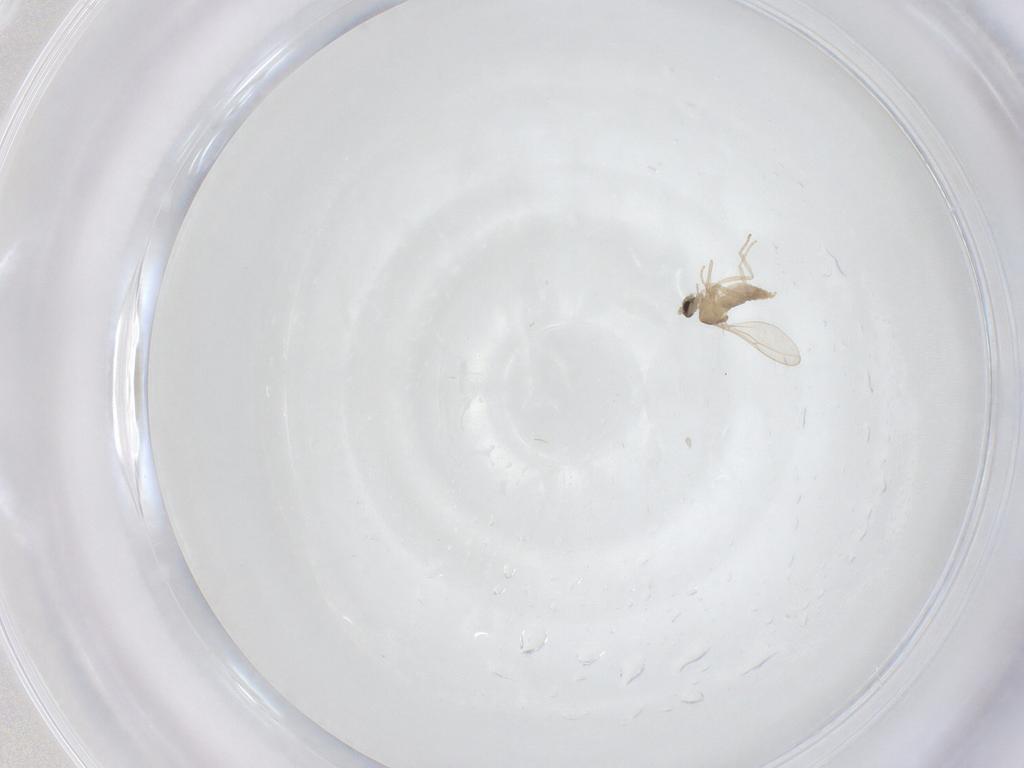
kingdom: Animalia
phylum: Arthropoda
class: Insecta
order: Diptera
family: Cecidomyiidae
